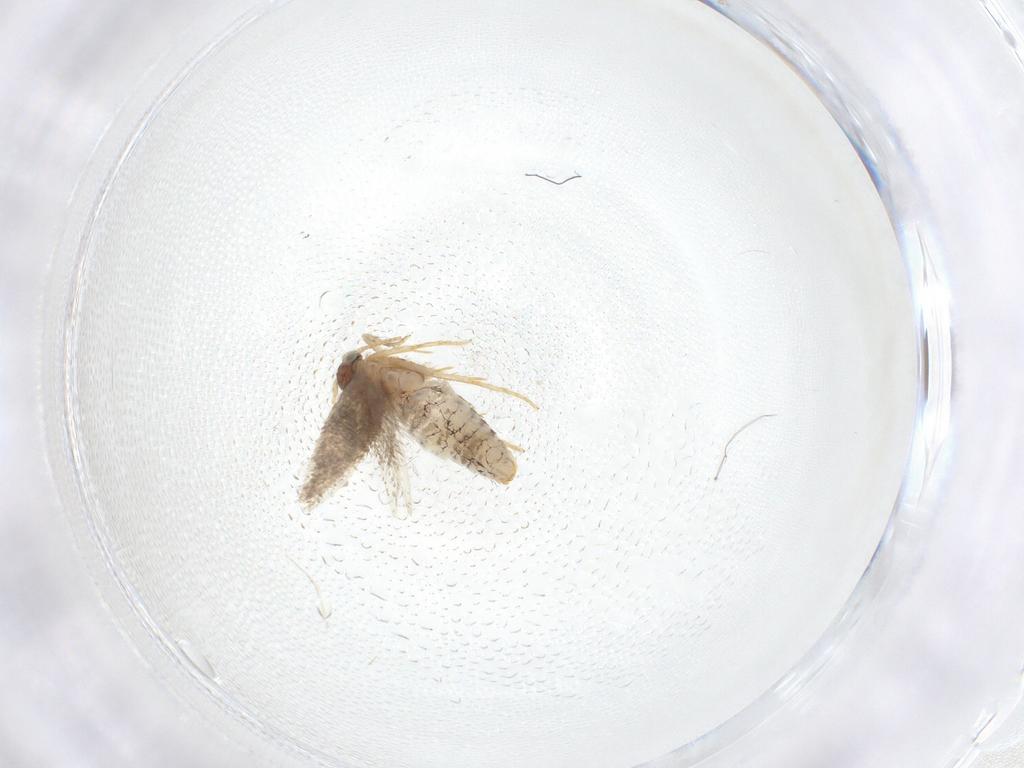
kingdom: Animalia
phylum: Arthropoda
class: Insecta
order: Lepidoptera
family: Nepticulidae
